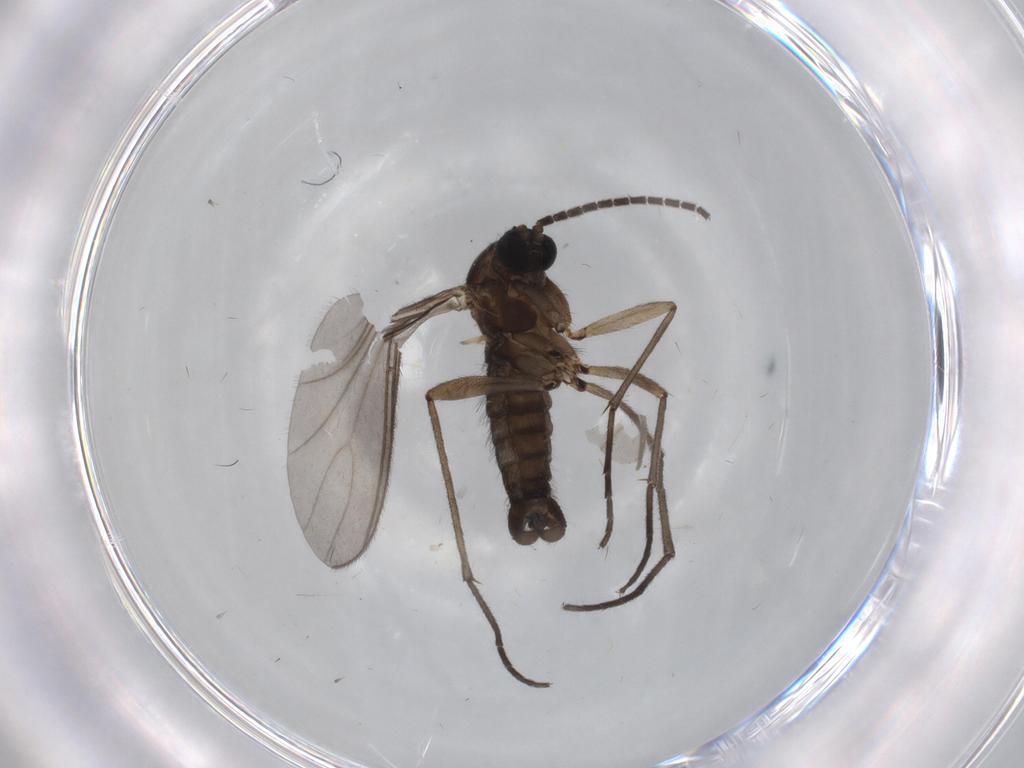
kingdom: Animalia
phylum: Arthropoda
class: Insecta
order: Diptera
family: Sciaridae
